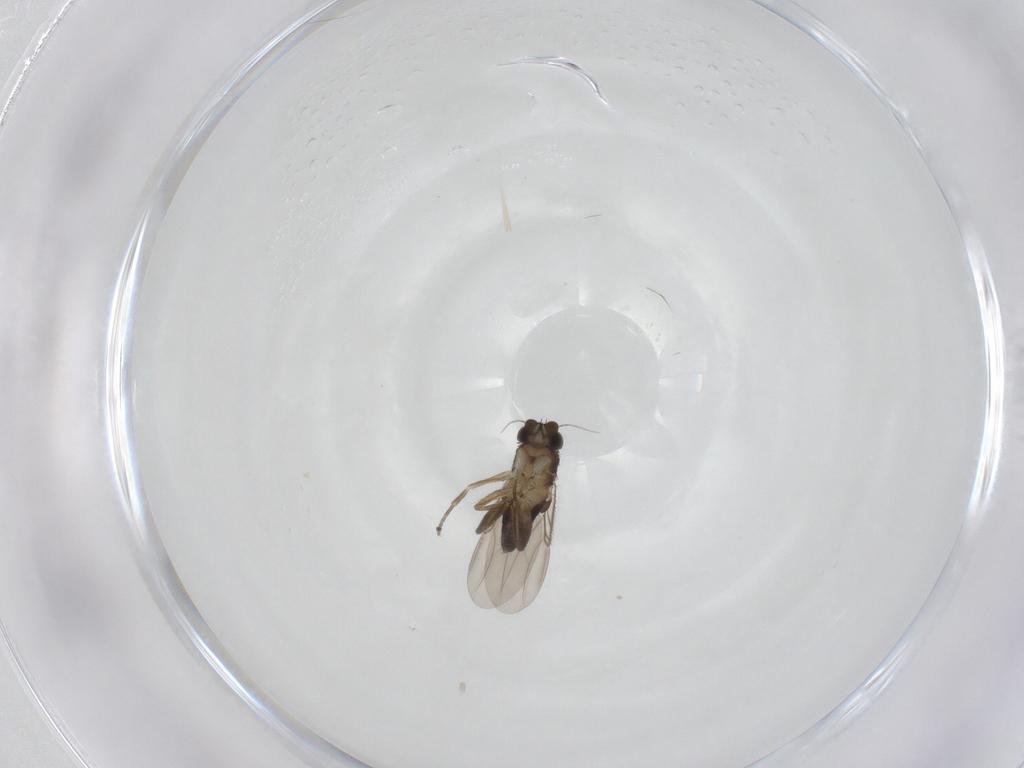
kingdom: Animalia
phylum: Arthropoda
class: Insecta
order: Diptera
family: Phoridae
